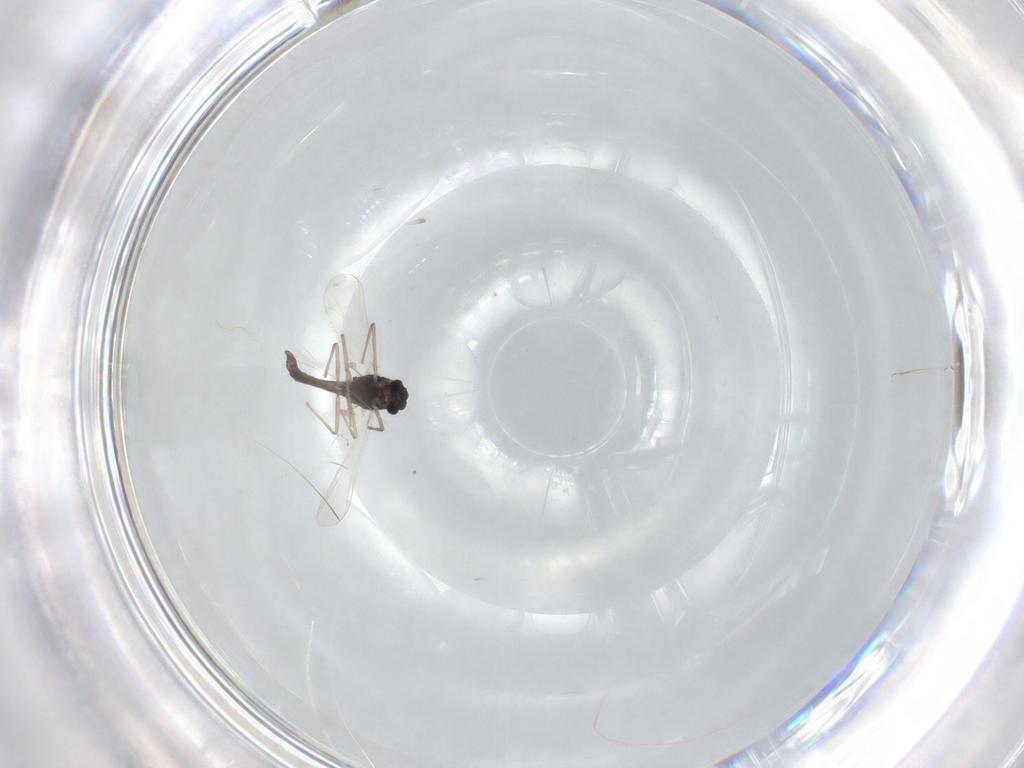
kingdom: Animalia
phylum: Arthropoda
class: Insecta
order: Diptera
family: Chironomidae
